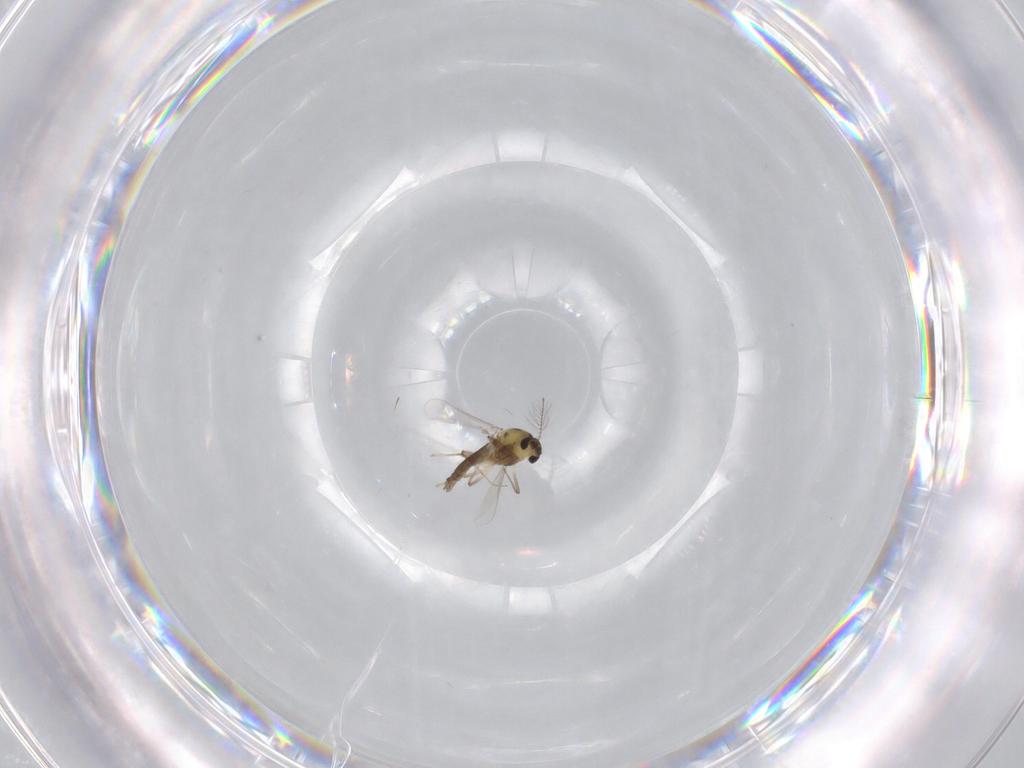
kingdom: Animalia
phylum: Arthropoda
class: Insecta
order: Diptera
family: Chironomidae
